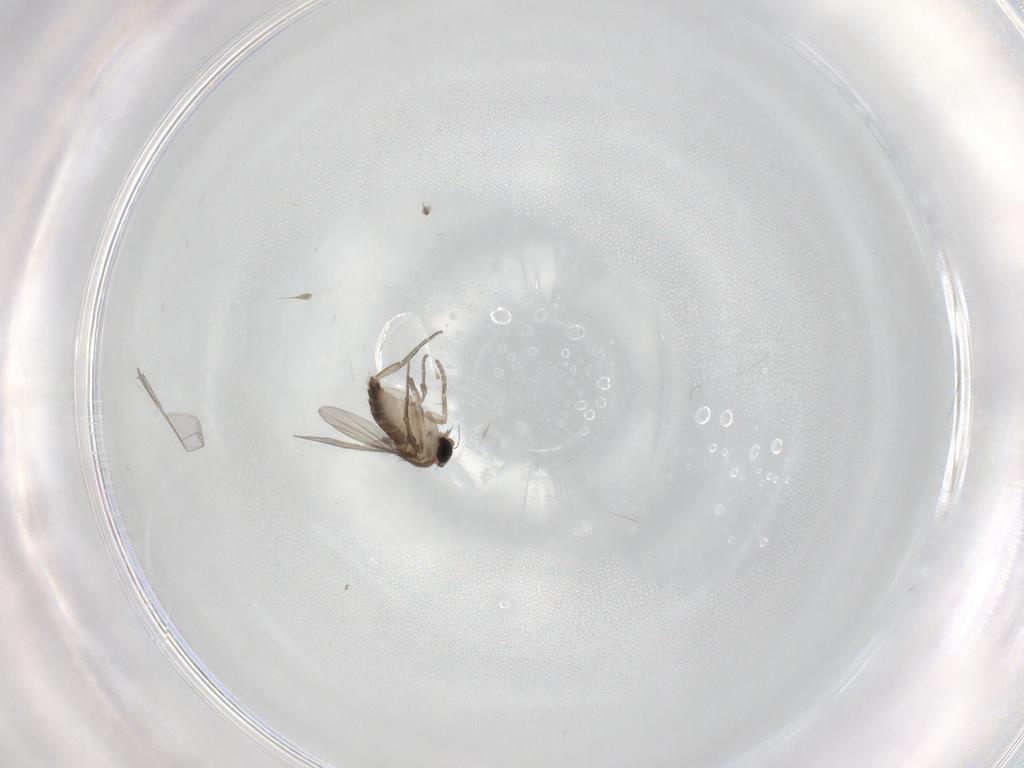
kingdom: Animalia
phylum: Arthropoda
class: Insecta
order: Diptera
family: Phoridae
